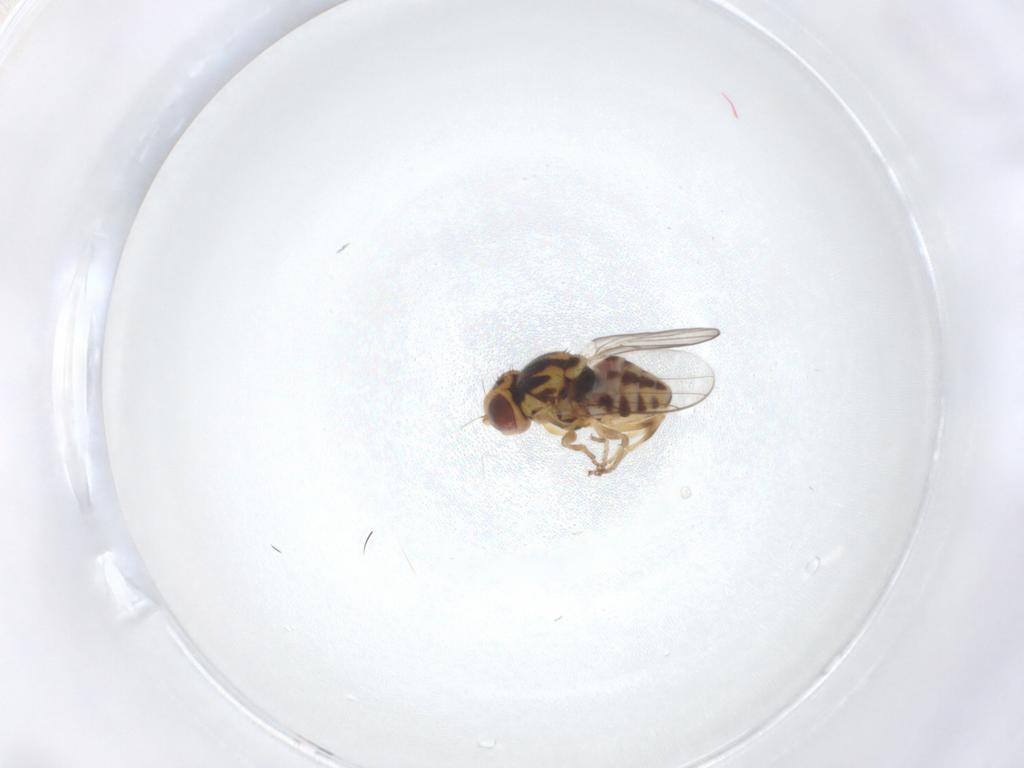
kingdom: Animalia
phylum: Arthropoda
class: Insecta
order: Diptera
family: Chloropidae
